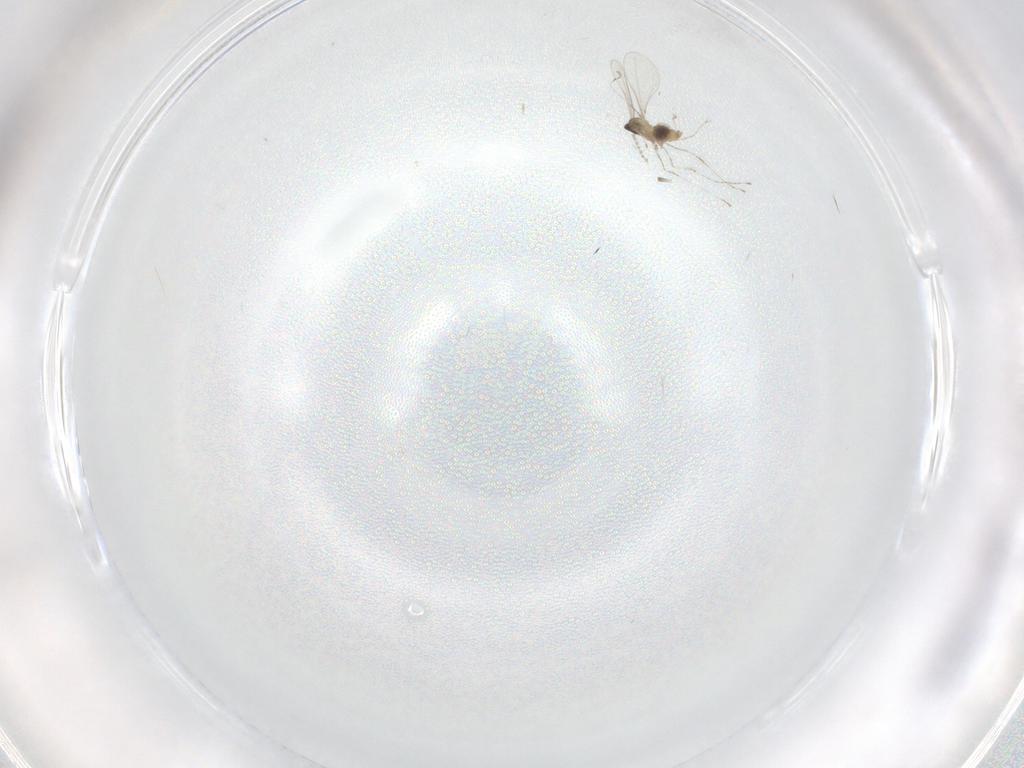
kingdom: Animalia
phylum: Arthropoda
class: Insecta
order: Diptera
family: Cecidomyiidae
